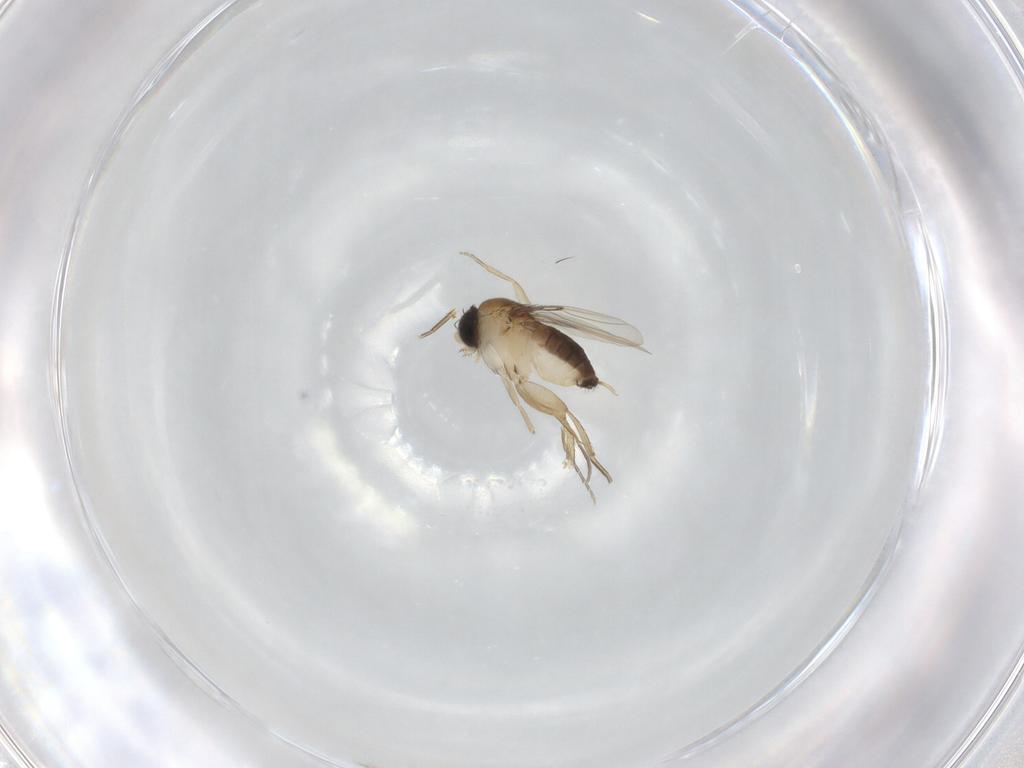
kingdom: Animalia
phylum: Arthropoda
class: Insecta
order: Diptera
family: Phoridae
